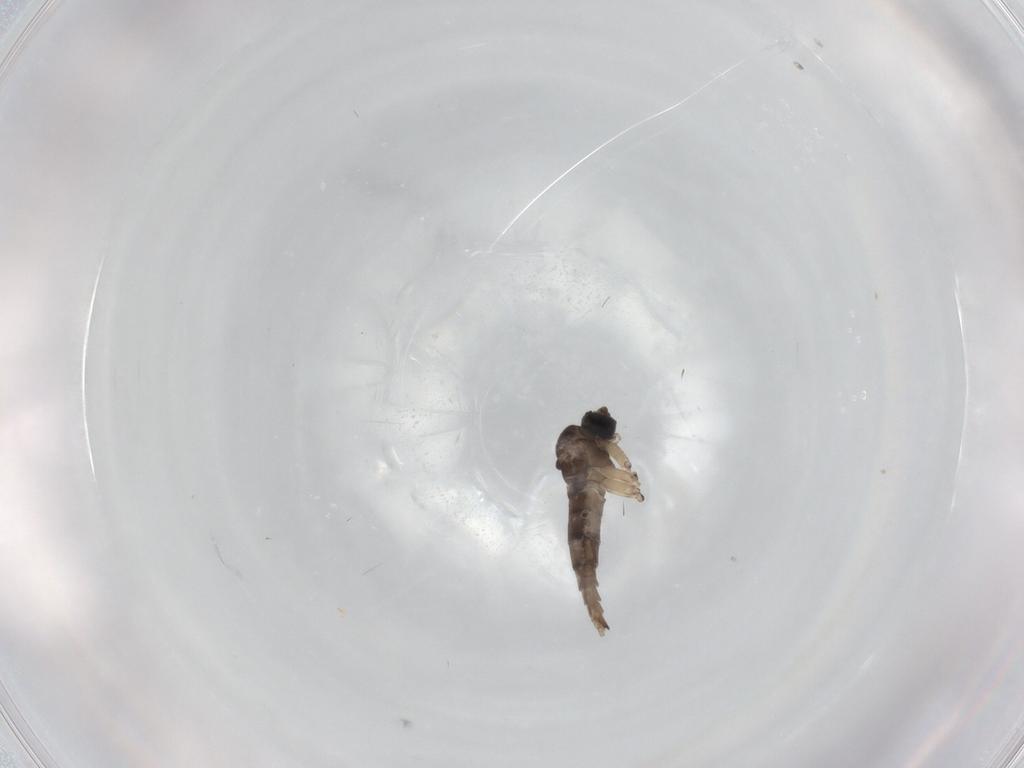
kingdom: Animalia
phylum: Arthropoda
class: Insecta
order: Diptera
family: Chironomidae
